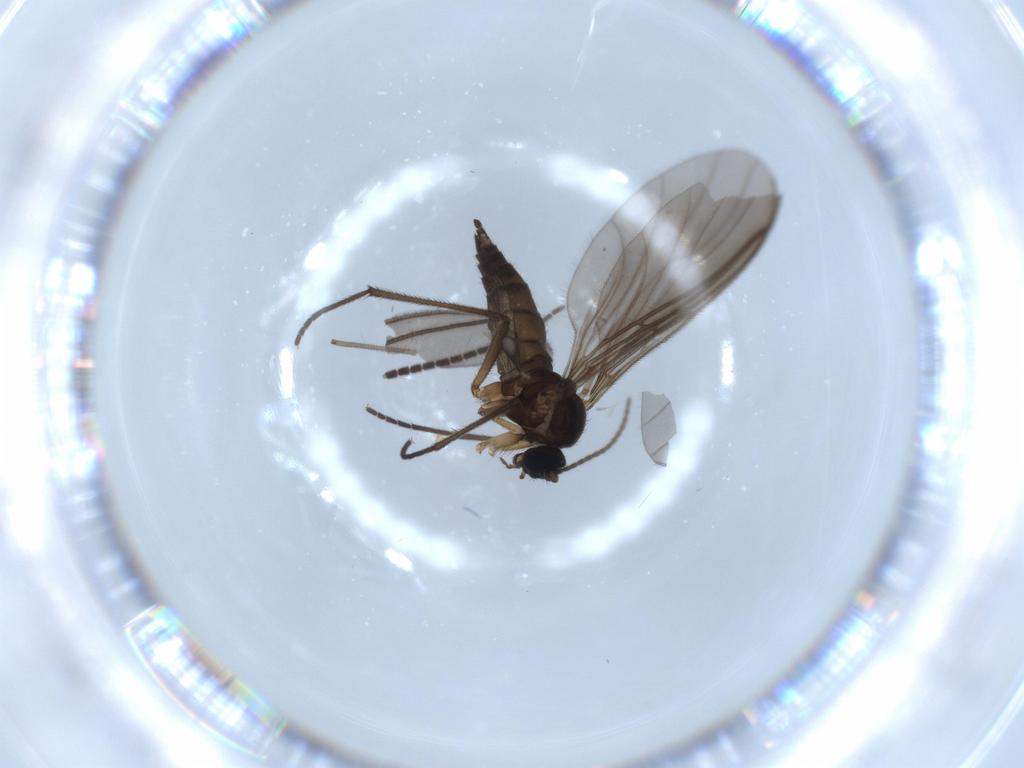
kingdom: Animalia
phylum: Arthropoda
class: Insecta
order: Diptera
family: Sciaridae
